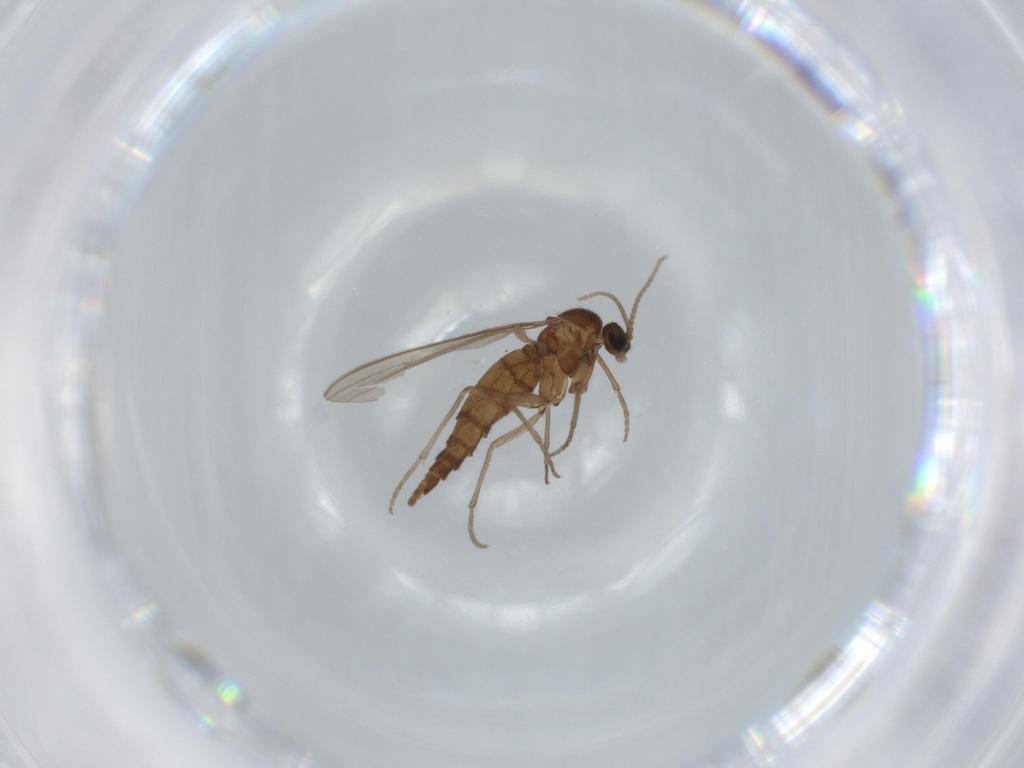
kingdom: Animalia
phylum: Arthropoda
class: Insecta
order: Diptera
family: Sciaridae
